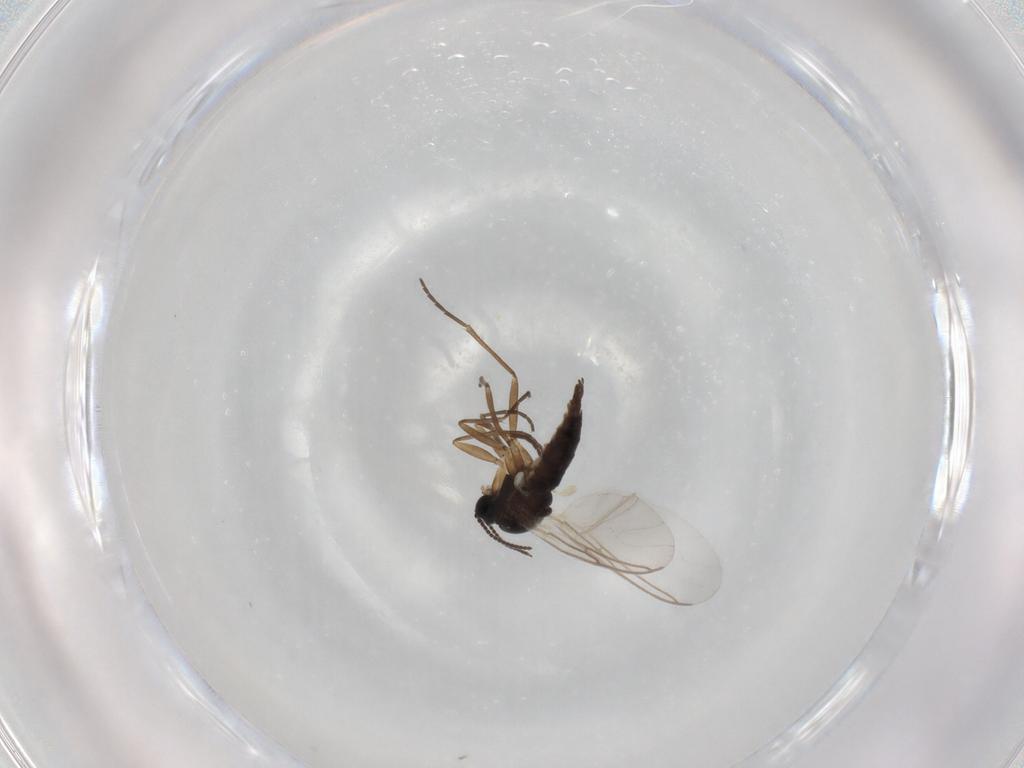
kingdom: Animalia
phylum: Arthropoda
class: Insecta
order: Diptera
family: Sciaridae
